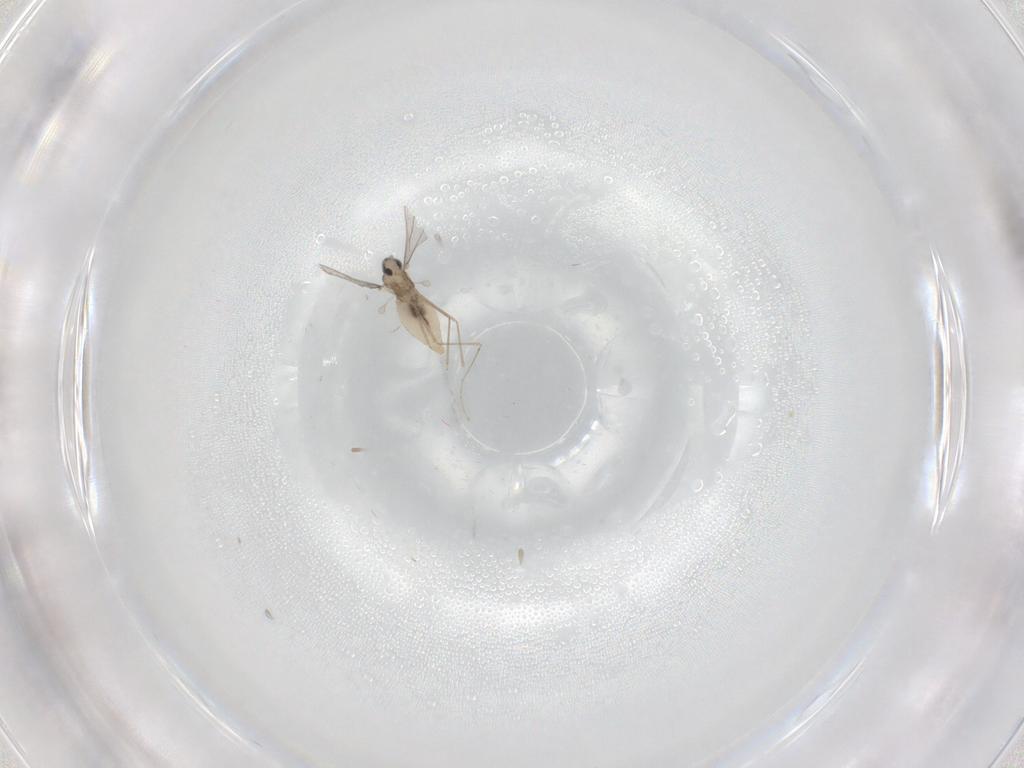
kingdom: Animalia
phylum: Arthropoda
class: Insecta
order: Diptera
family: Cecidomyiidae
